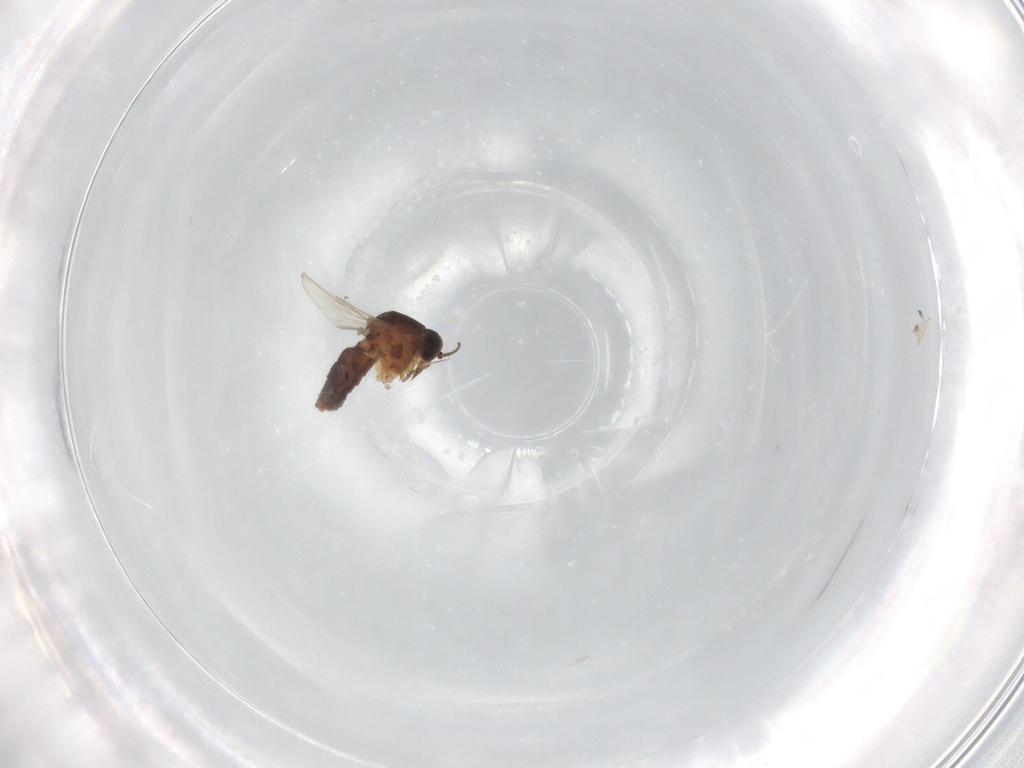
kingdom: Animalia
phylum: Arthropoda
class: Insecta
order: Diptera
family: Ceratopogonidae
